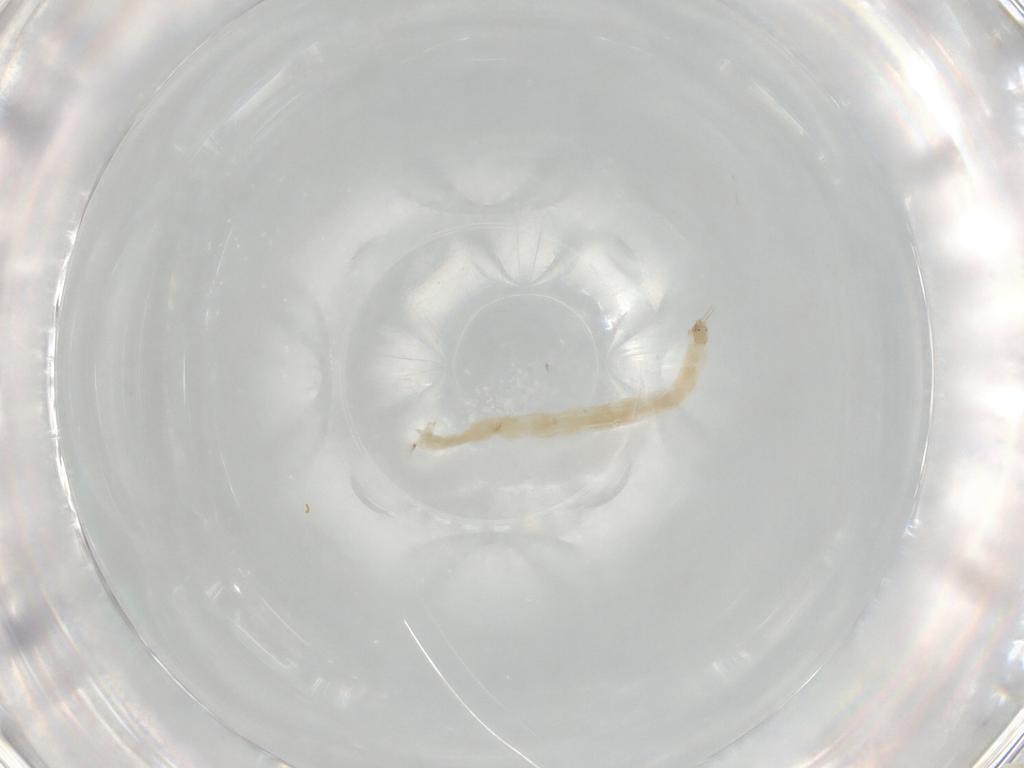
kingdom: Animalia
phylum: Arthropoda
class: Insecta
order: Diptera
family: Chironomidae
